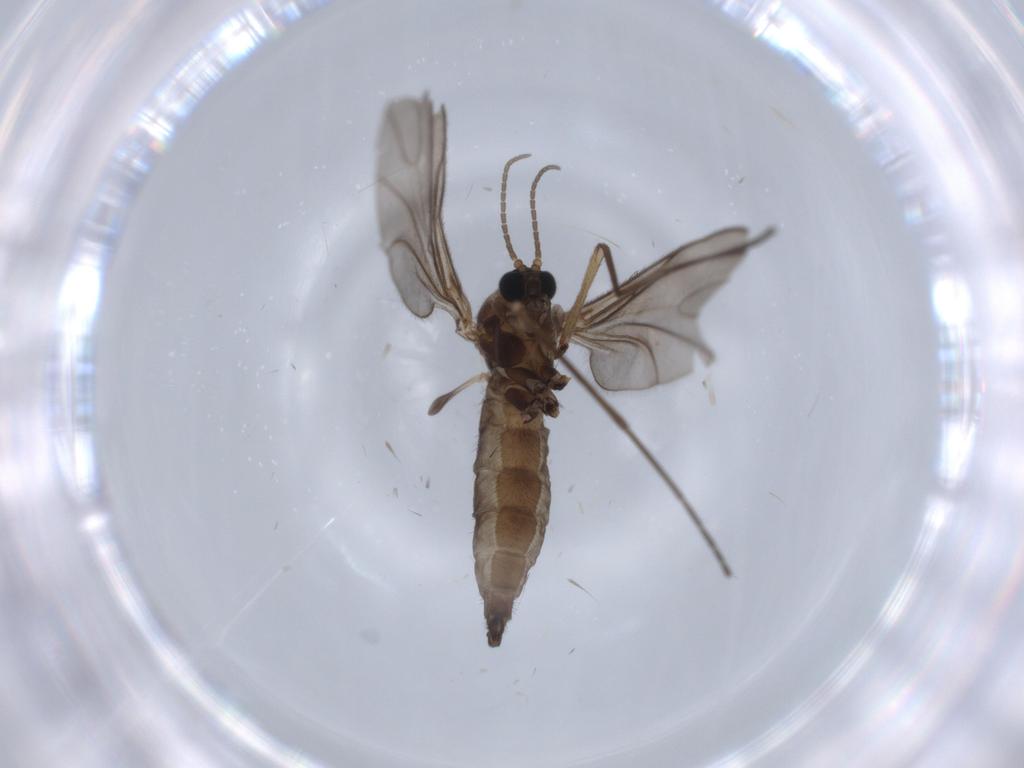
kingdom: Animalia
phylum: Arthropoda
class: Insecta
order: Diptera
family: Sciaridae
